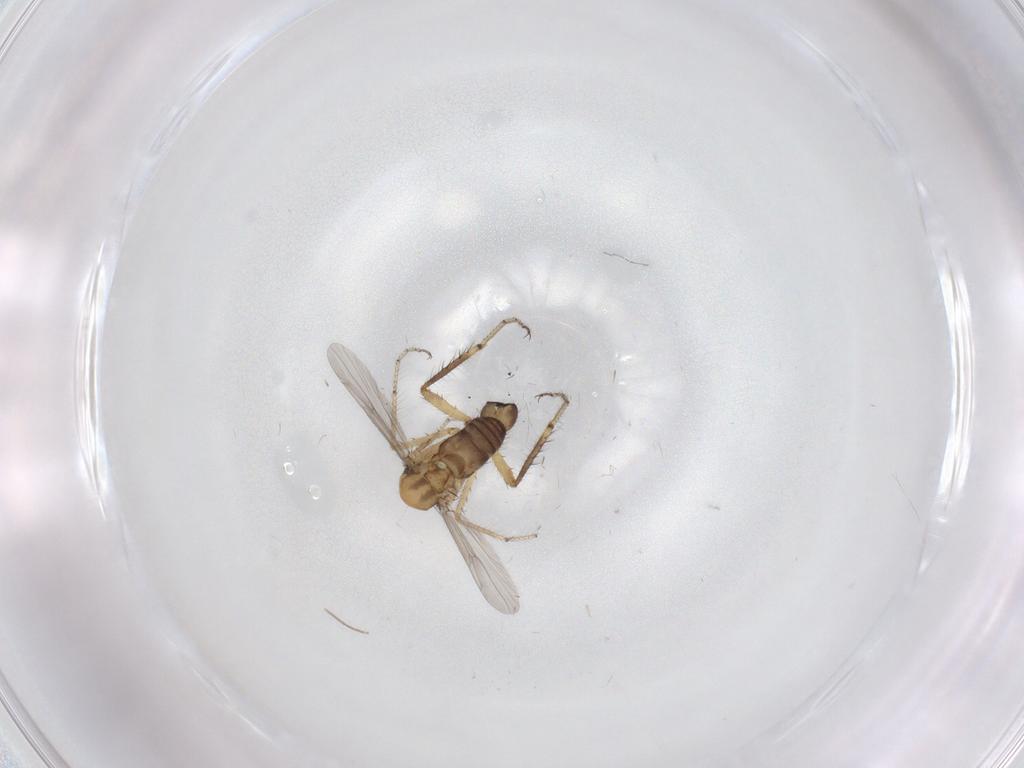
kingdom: Animalia
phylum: Arthropoda
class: Insecta
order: Diptera
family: Ceratopogonidae
